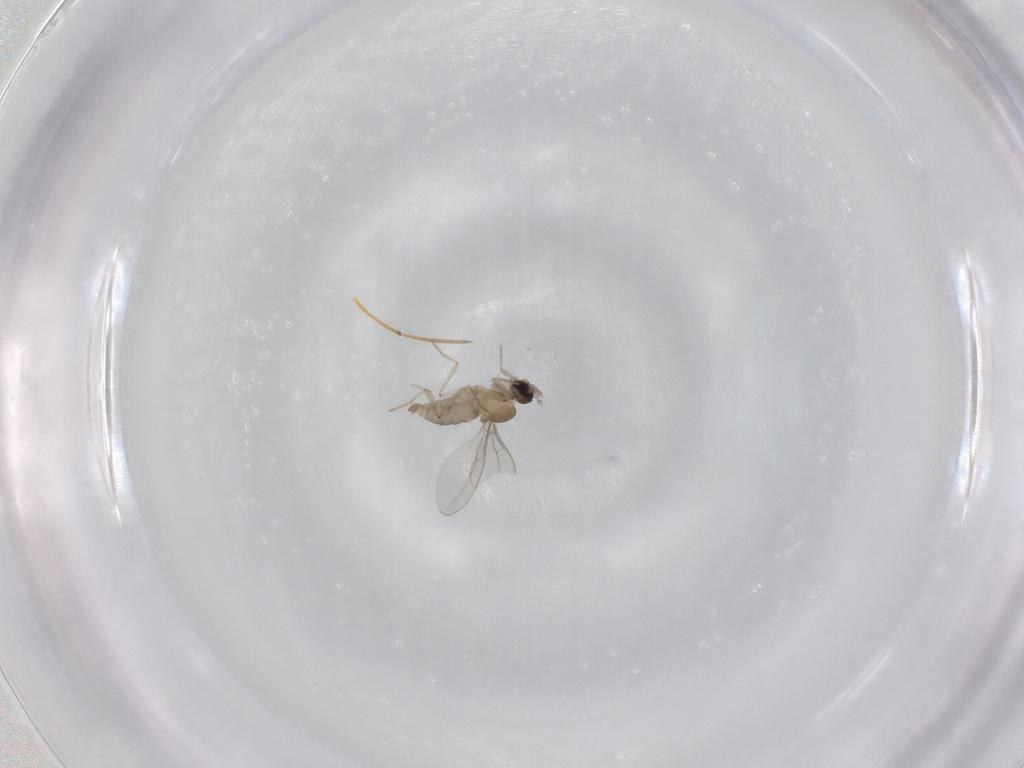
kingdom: Animalia
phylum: Arthropoda
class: Insecta
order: Diptera
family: Cecidomyiidae
